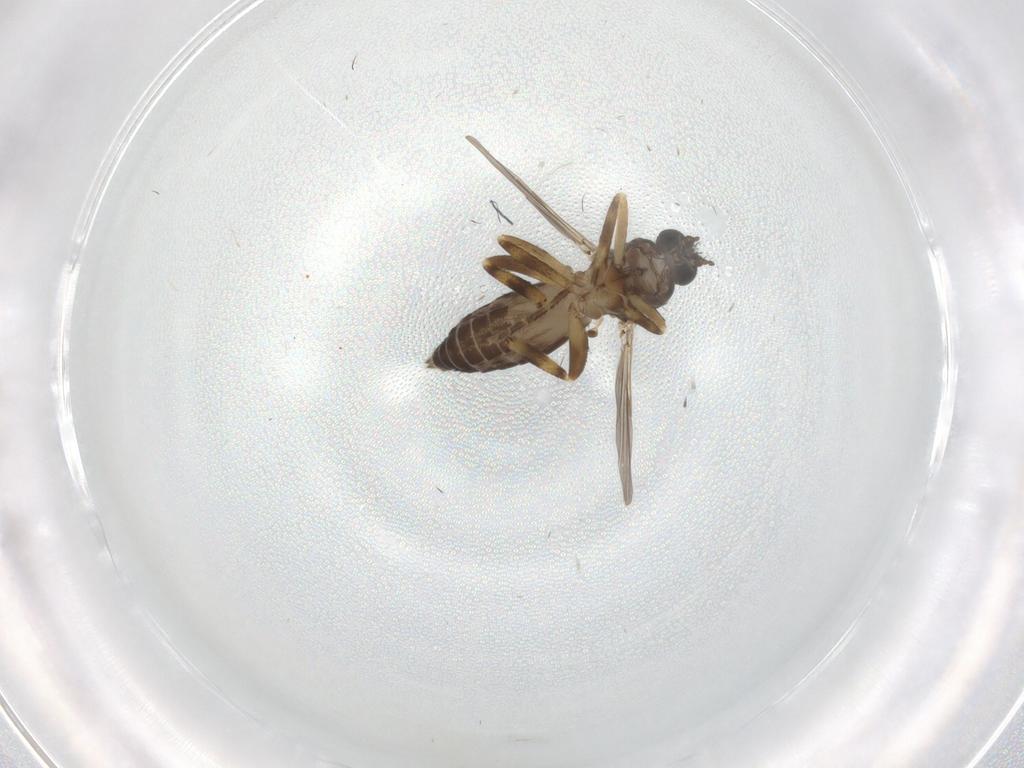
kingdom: Animalia
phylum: Arthropoda
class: Insecta
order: Diptera
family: Ceratopogonidae
